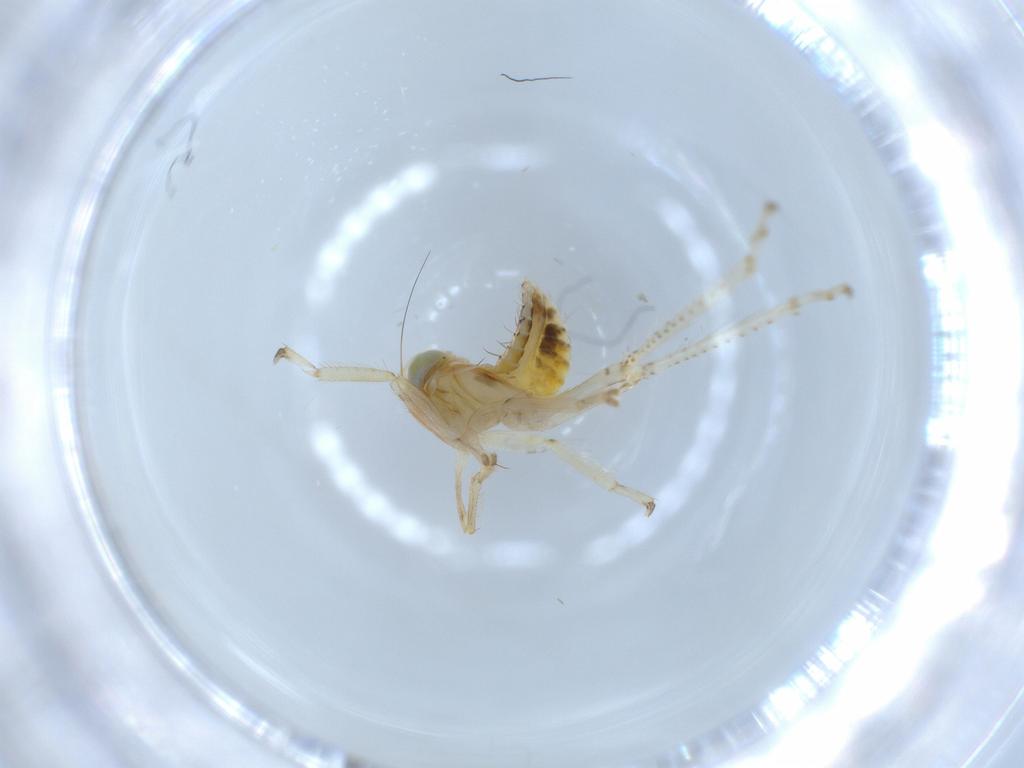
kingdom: Animalia
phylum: Arthropoda
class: Insecta
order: Hemiptera
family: Cicadellidae
